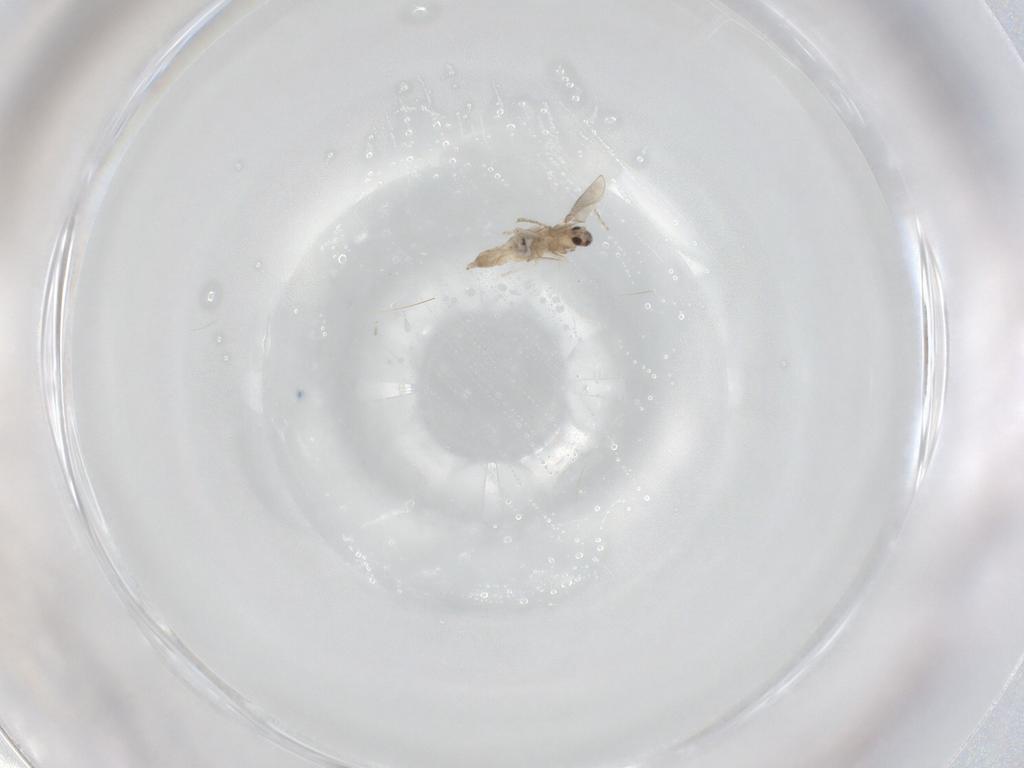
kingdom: Animalia
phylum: Arthropoda
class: Insecta
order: Diptera
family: Cecidomyiidae
